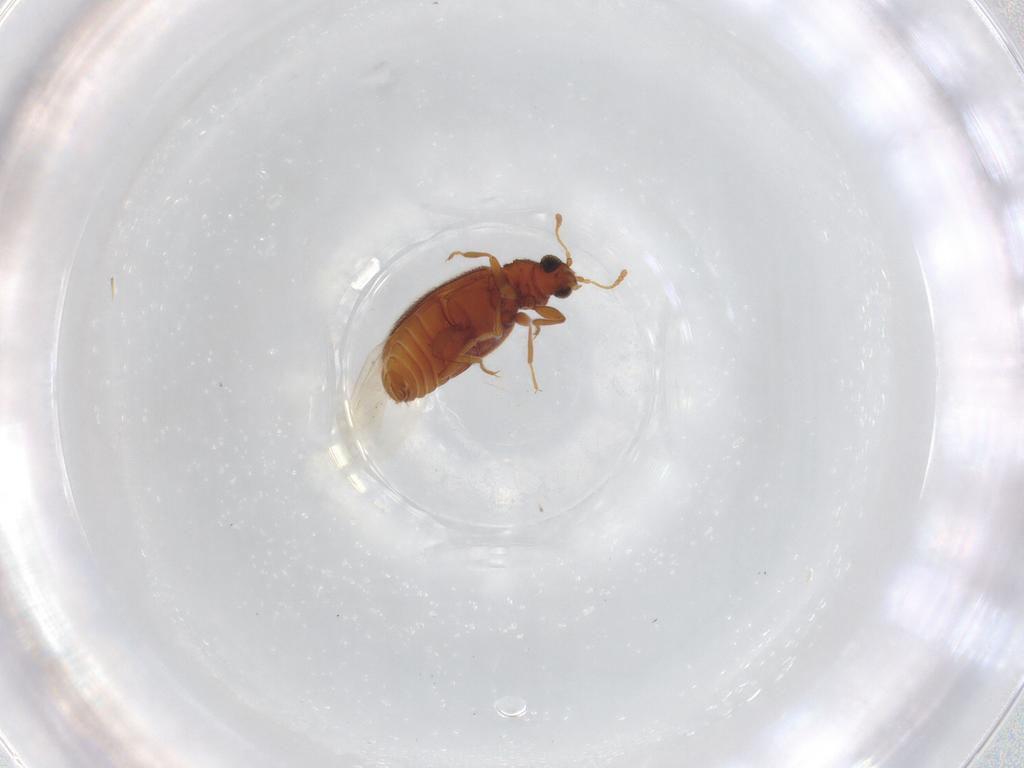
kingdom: Animalia
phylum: Arthropoda
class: Insecta
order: Coleoptera
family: Latridiidae
